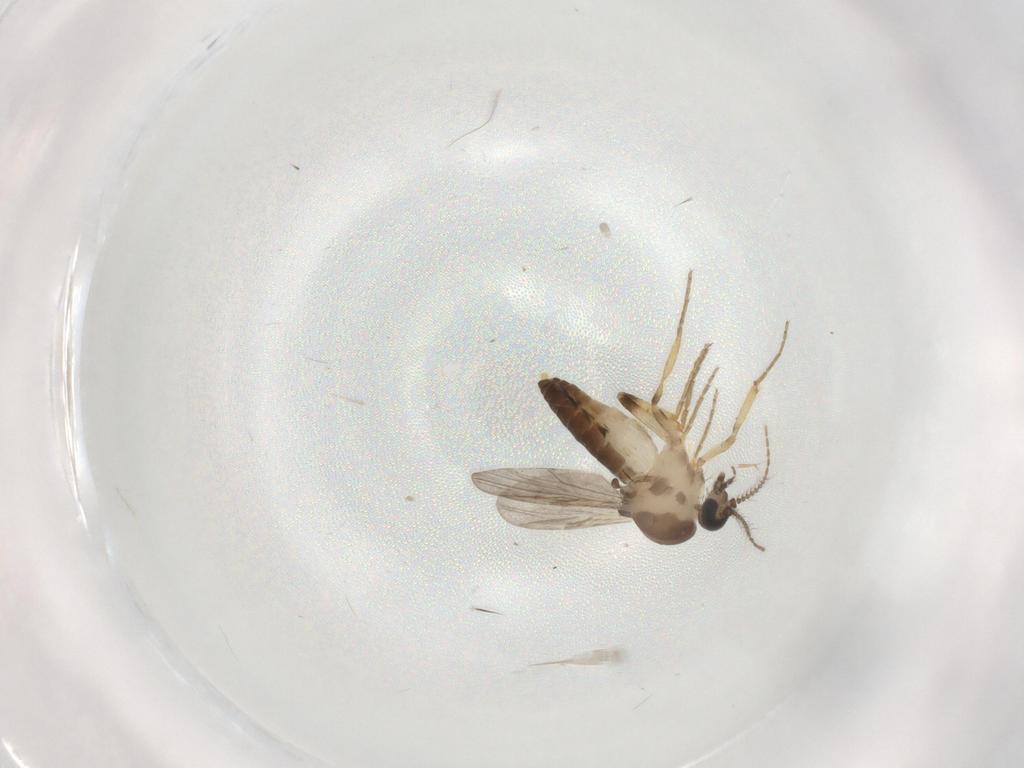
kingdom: Animalia
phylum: Arthropoda
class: Insecta
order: Diptera
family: Ceratopogonidae
